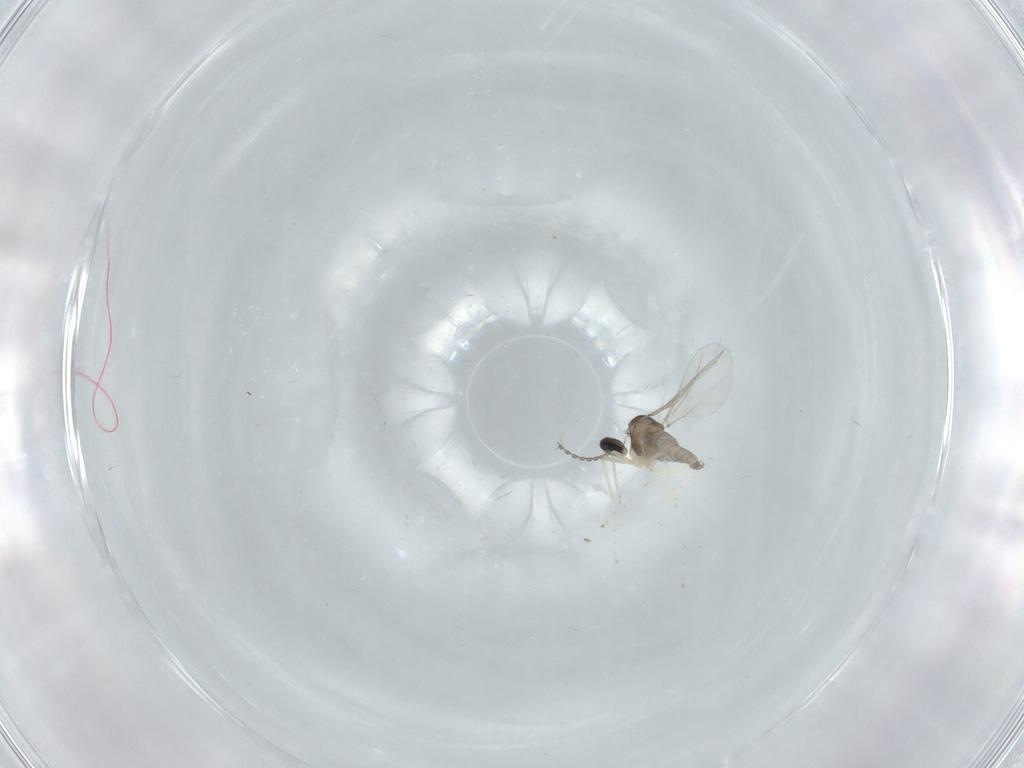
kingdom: Animalia
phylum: Arthropoda
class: Insecta
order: Diptera
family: Cecidomyiidae
